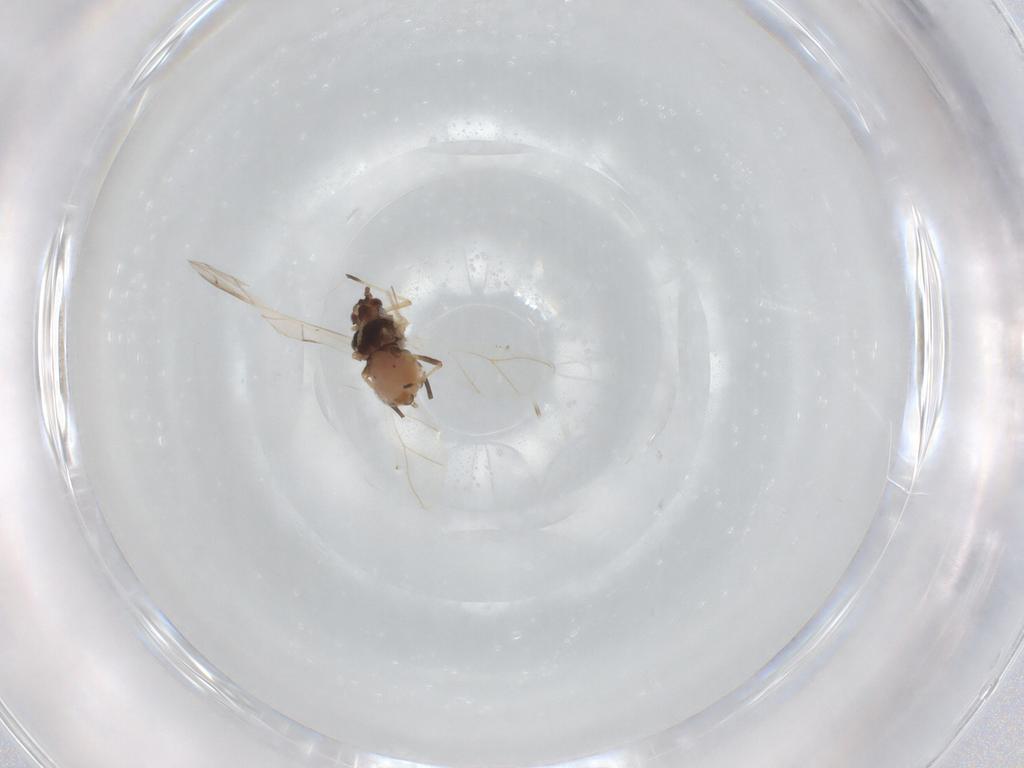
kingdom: Animalia
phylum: Arthropoda
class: Insecta
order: Hemiptera
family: Aphididae
